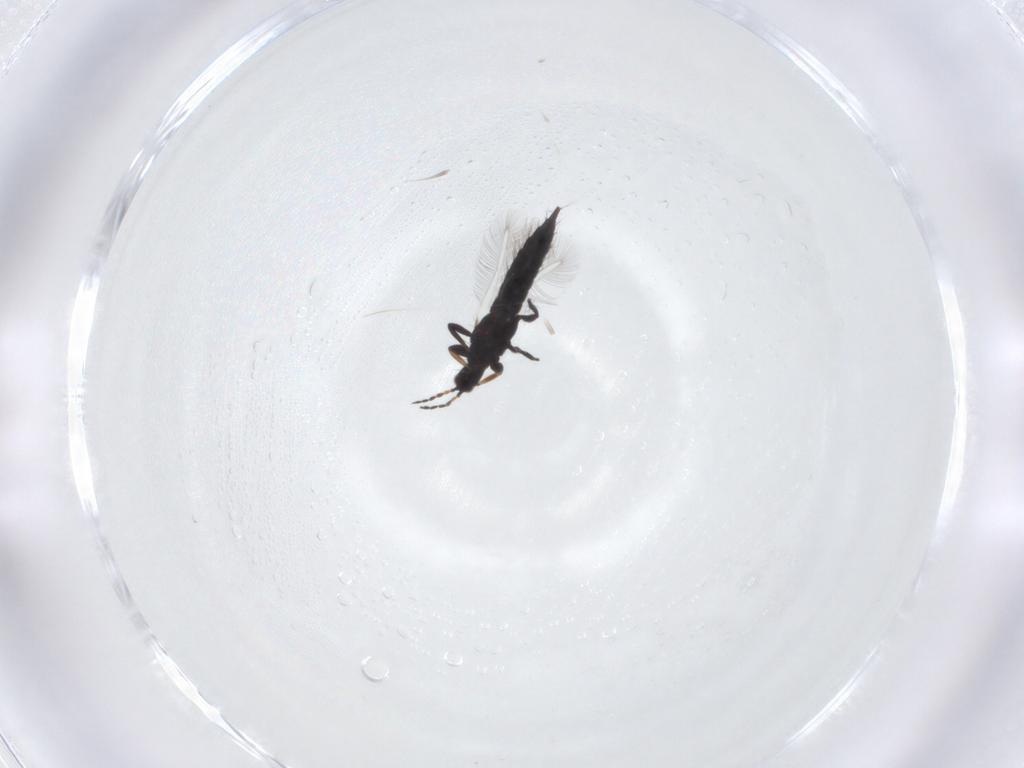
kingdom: Animalia
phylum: Arthropoda
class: Insecta
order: Thysanoptera
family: Phlaeothripidae
